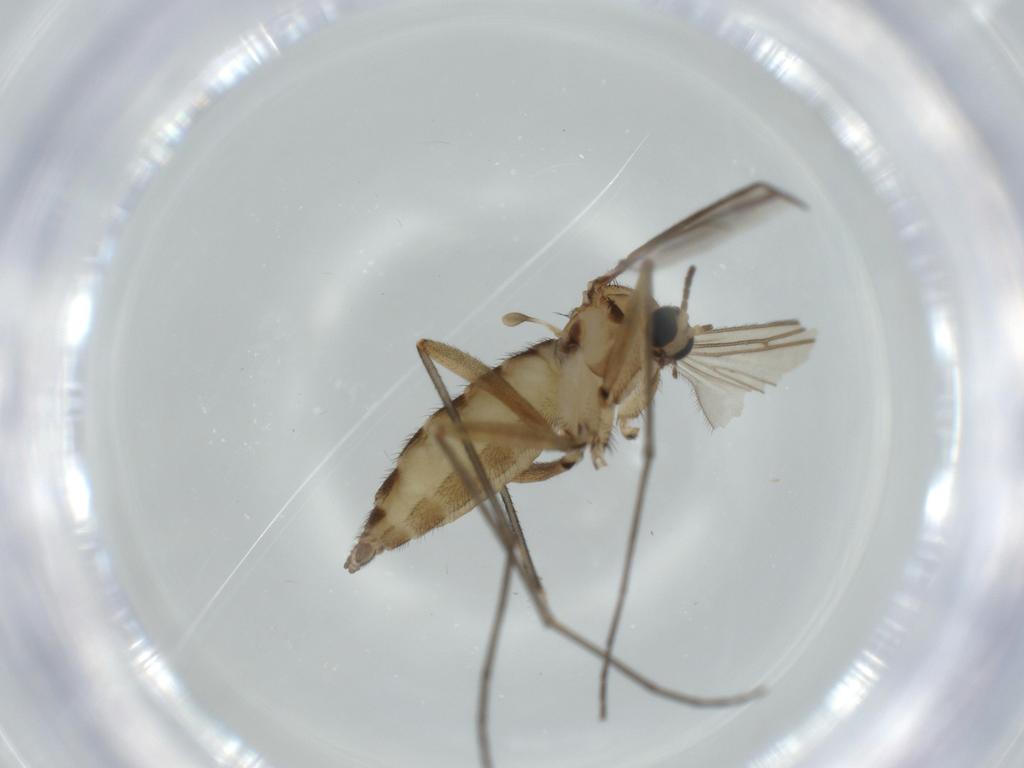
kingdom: Animalia
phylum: Arthropoda
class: Insecta
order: Diptera
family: Sciaridae
